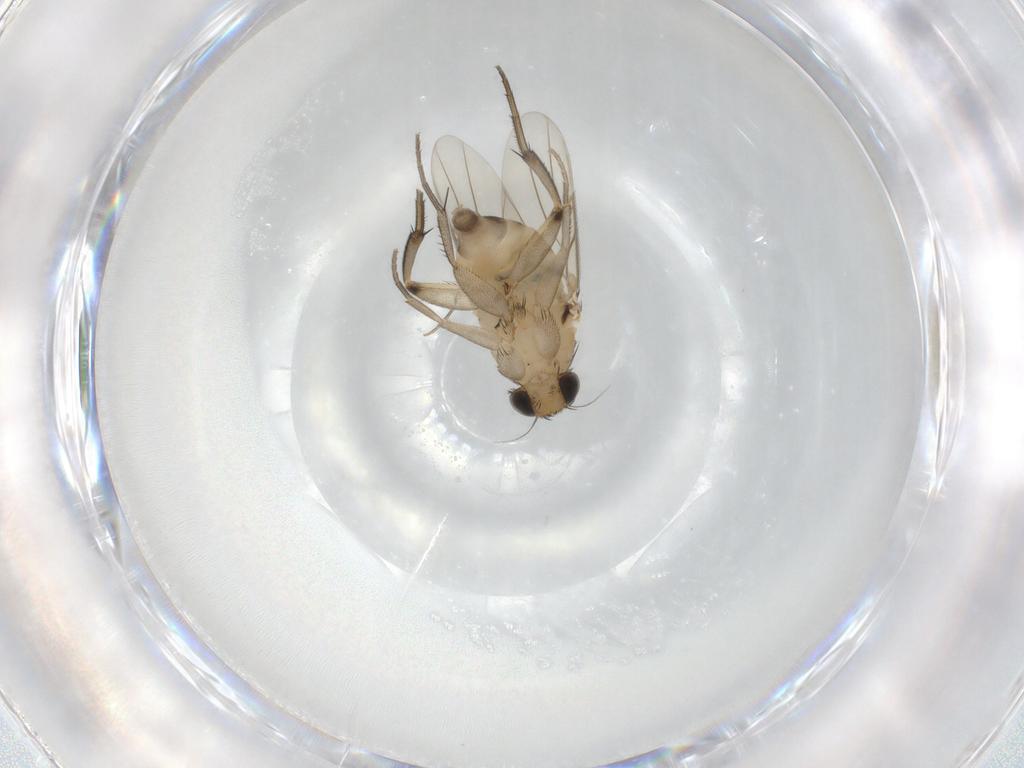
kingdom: Animalia
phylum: Arthropoda
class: Insecta
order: Diptera
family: Phoridae
